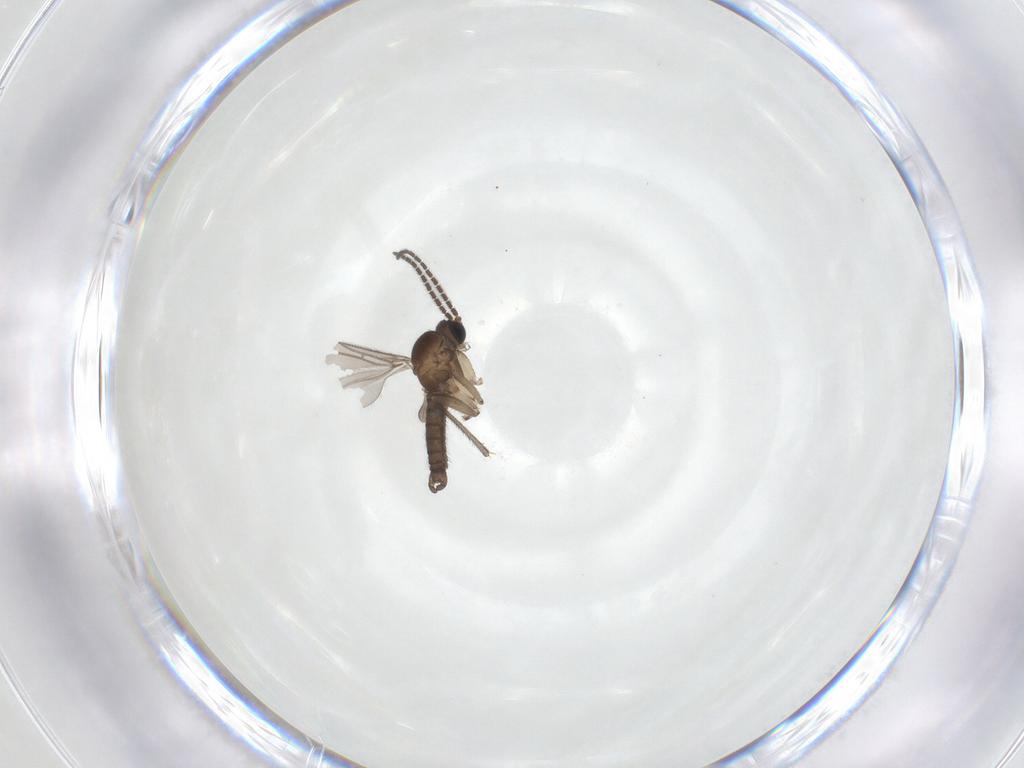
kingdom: Animalia
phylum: Arthropoda
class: Insecta
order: Diptera
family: Sciaridae
